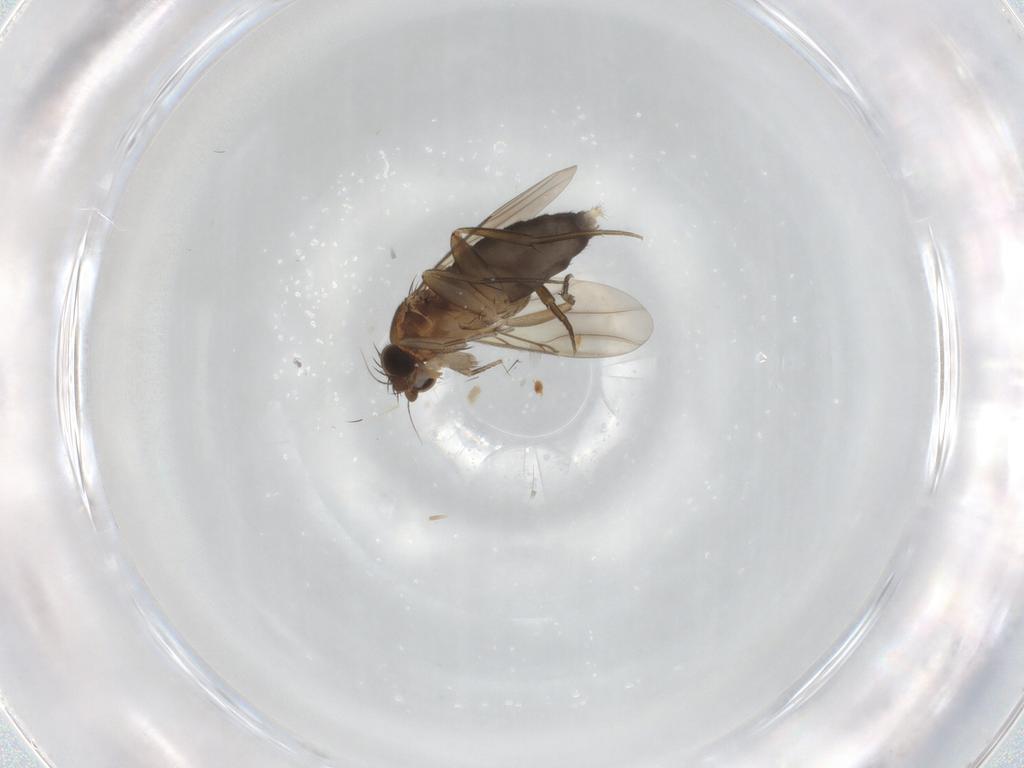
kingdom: Animalia
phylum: Arthropoda
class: Insecta
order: Diptera
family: Phoridae
